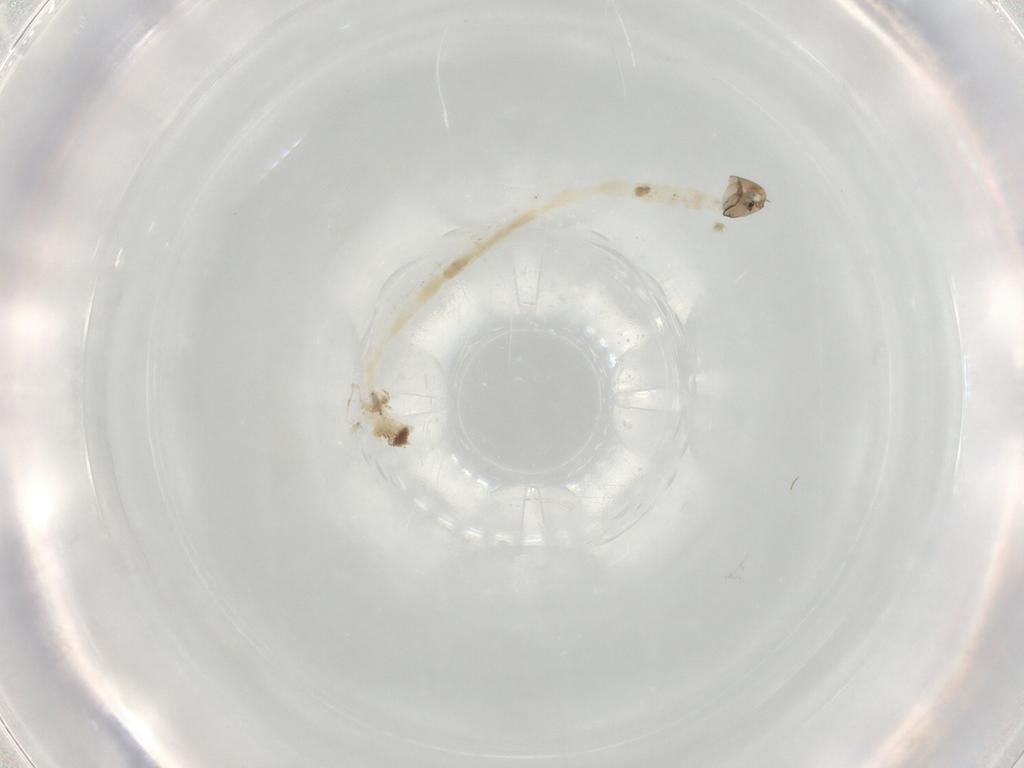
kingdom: Animalia
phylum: Arthropoda
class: Insecta
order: Diptera
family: Chironomidae
